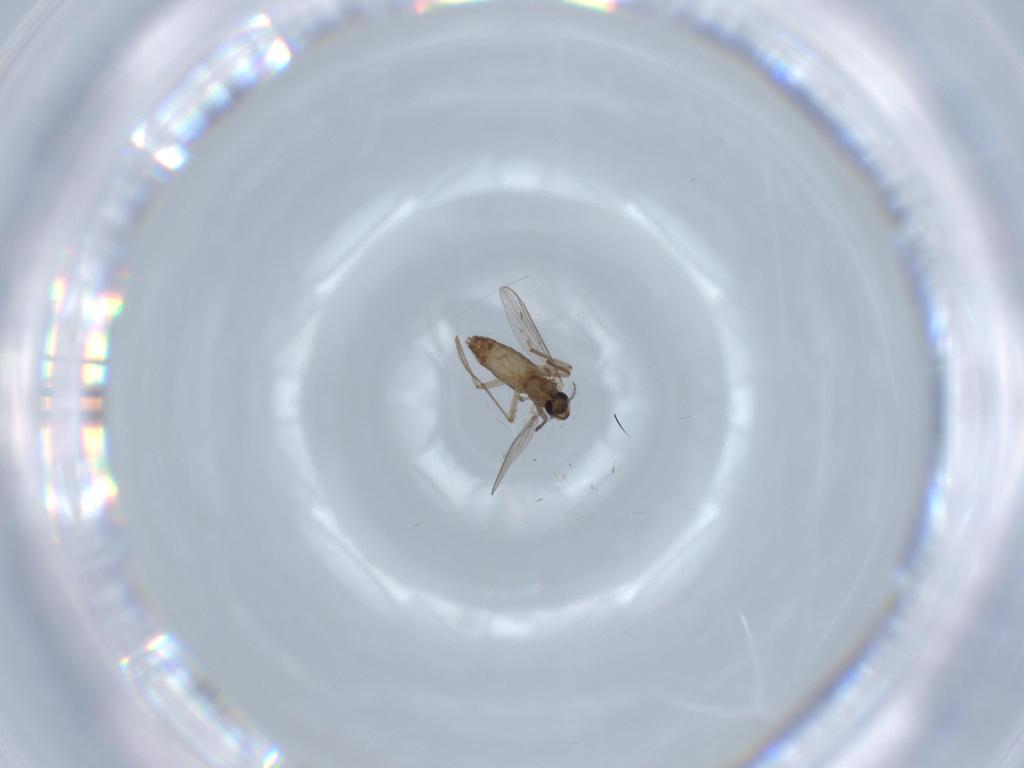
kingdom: Animalia
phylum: Arthropoda
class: Insecta
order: Diptera
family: Chironomidae
